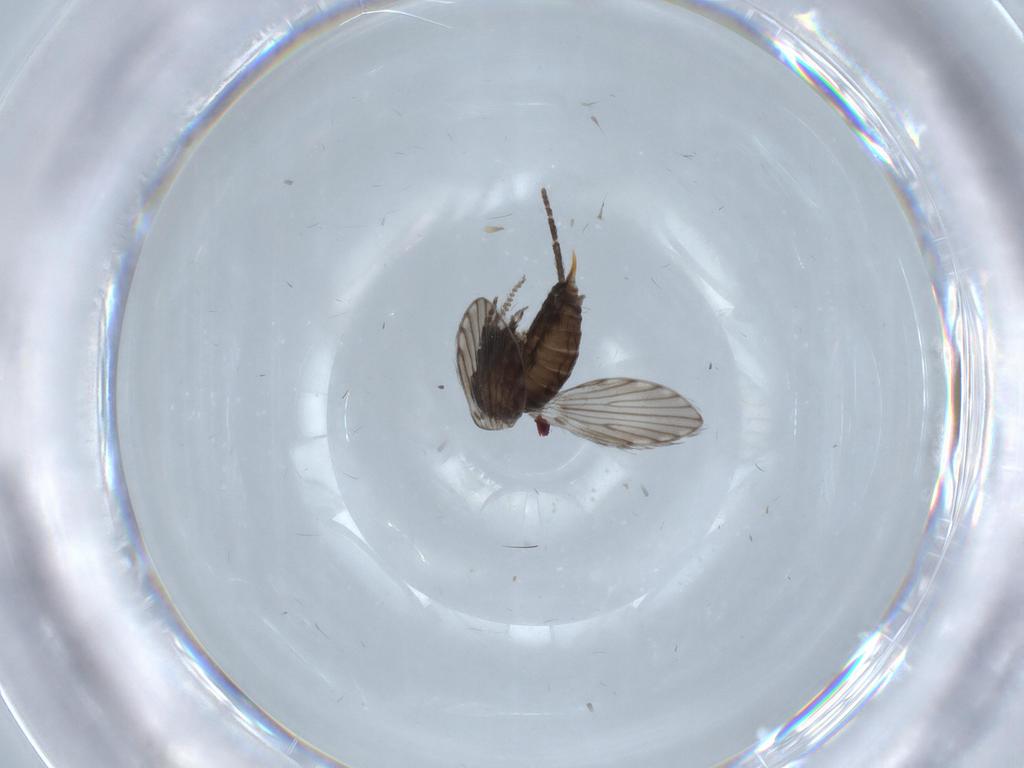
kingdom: Animalia
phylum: Arthropoda
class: Insecta
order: Diptera
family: Psychodidae
